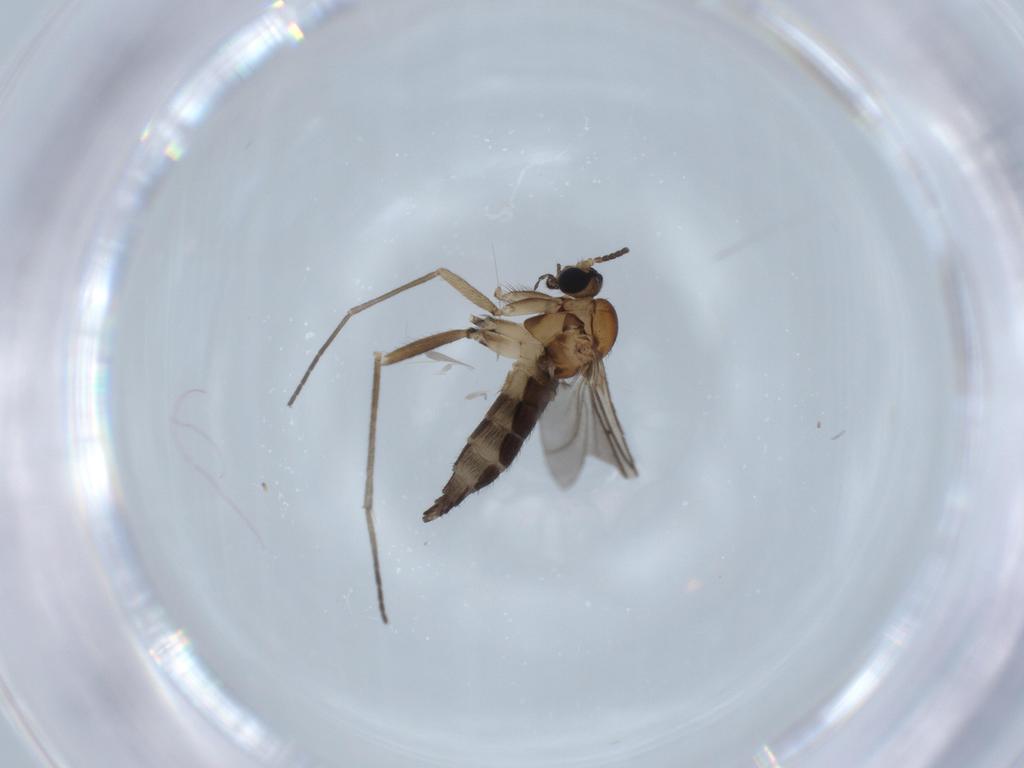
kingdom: Animalia
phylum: Arthropoda
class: Insecta
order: Diptera
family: Sciaridae
